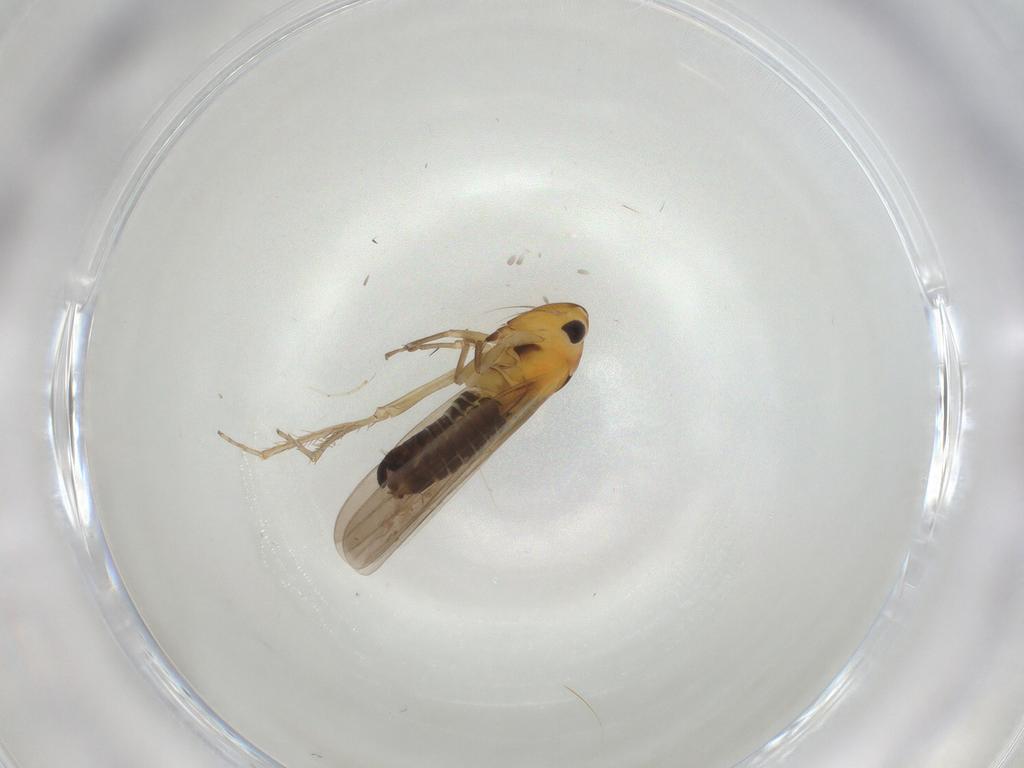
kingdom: Animalia
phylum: Arthropoda
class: Insecta
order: Hemiptera
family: Cicadellidae
